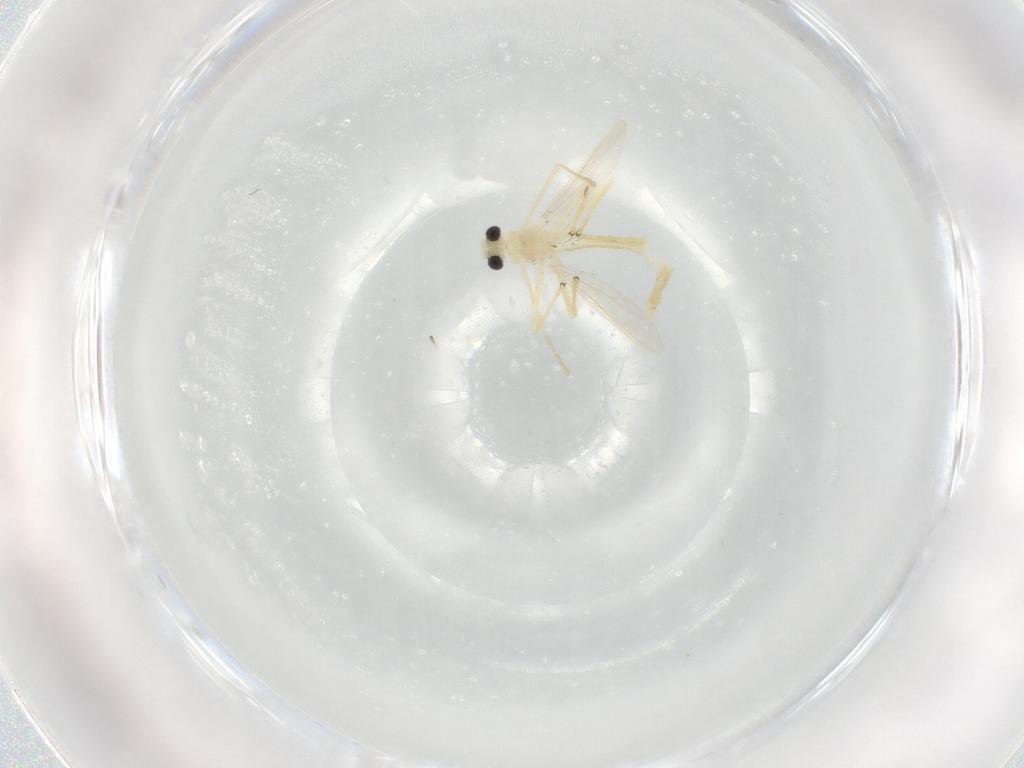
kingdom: Animalia
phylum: Arthropoda
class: Insecta
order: Diptera
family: Chironomidae
